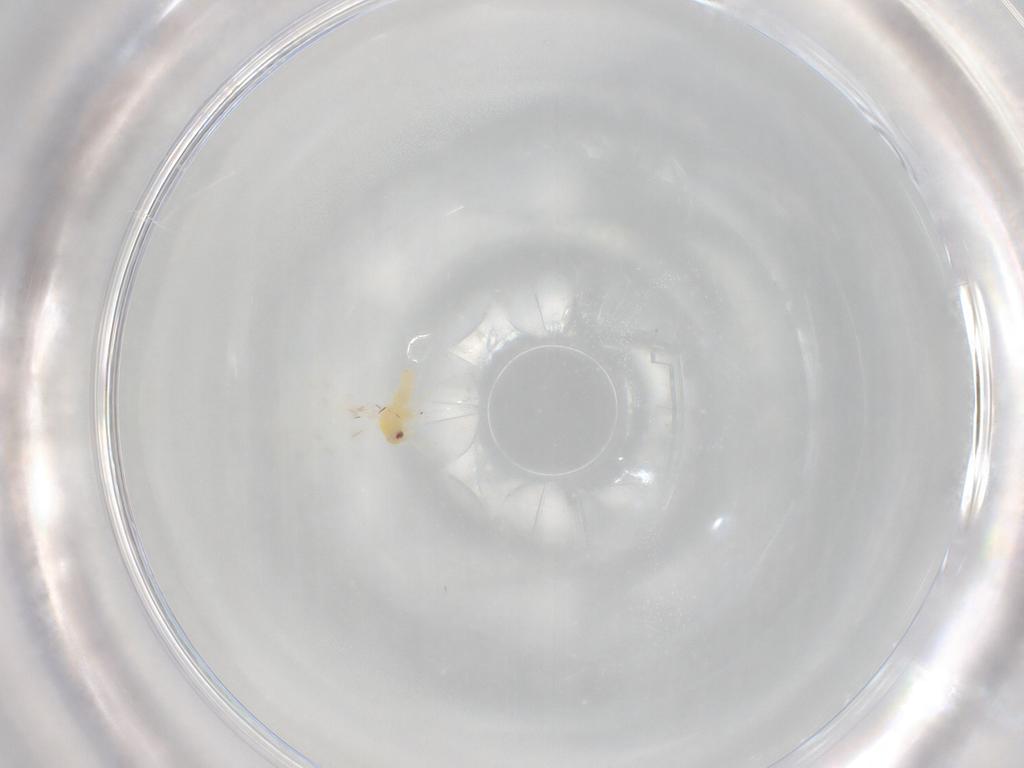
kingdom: Animalia
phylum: Arthropoda
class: Insecta
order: Hemiptera
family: Aleyrodidae
